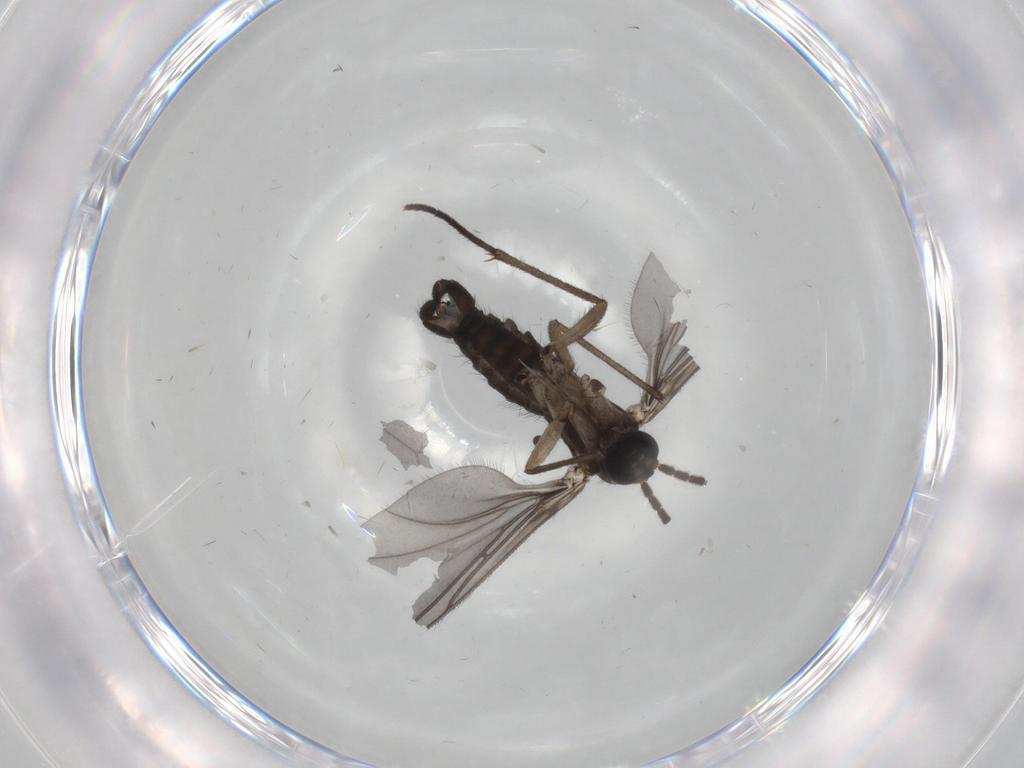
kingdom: Animalia
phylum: Arthropoda
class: Insecta
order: Diptera
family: Sciaridae
